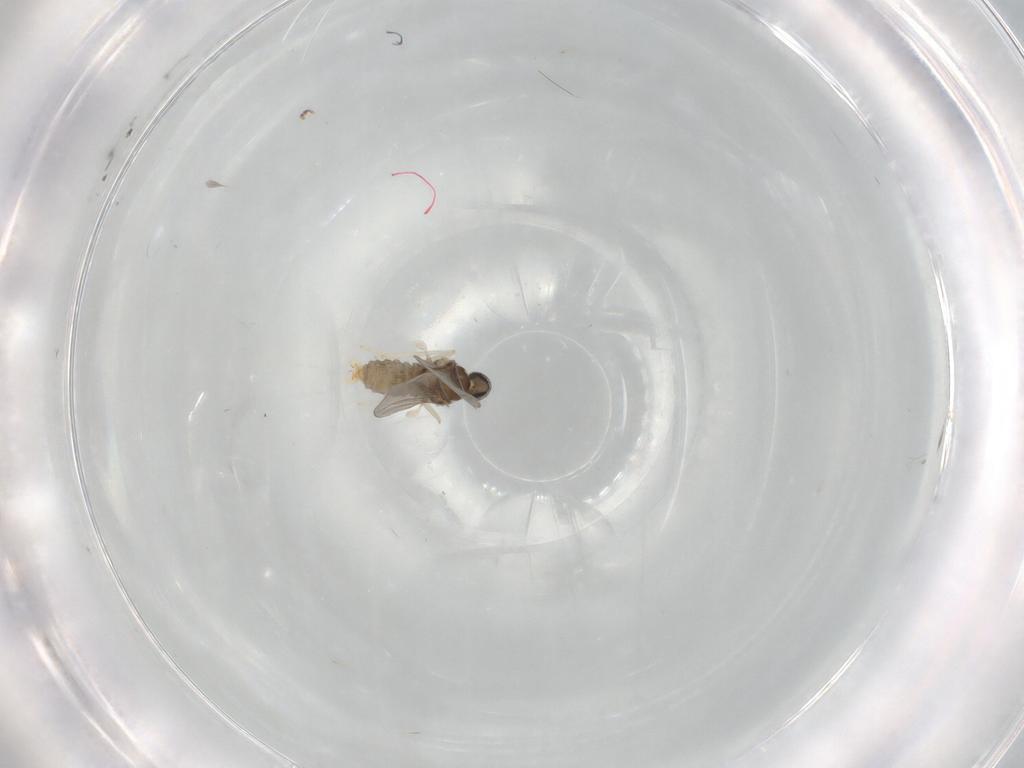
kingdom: Animalia
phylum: Arthropoda
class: Insecta
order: Diptera
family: Cecidomyiidae
